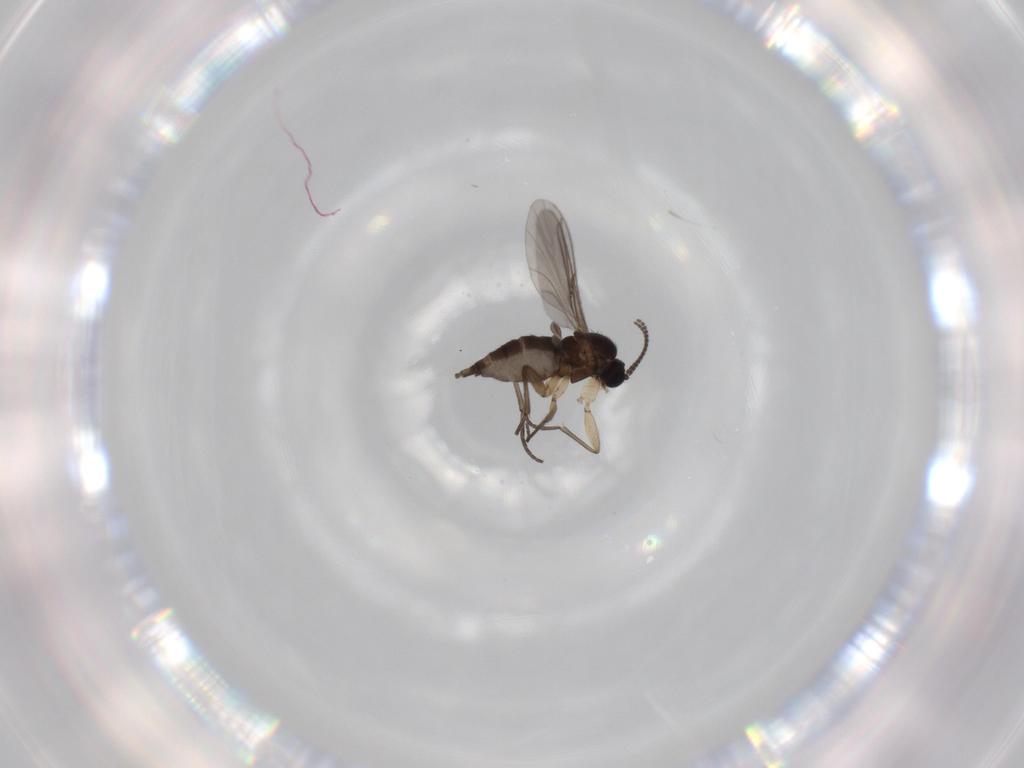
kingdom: Animalia
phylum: Arthropoda
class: Insecta
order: Diptera
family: Sciaridae
